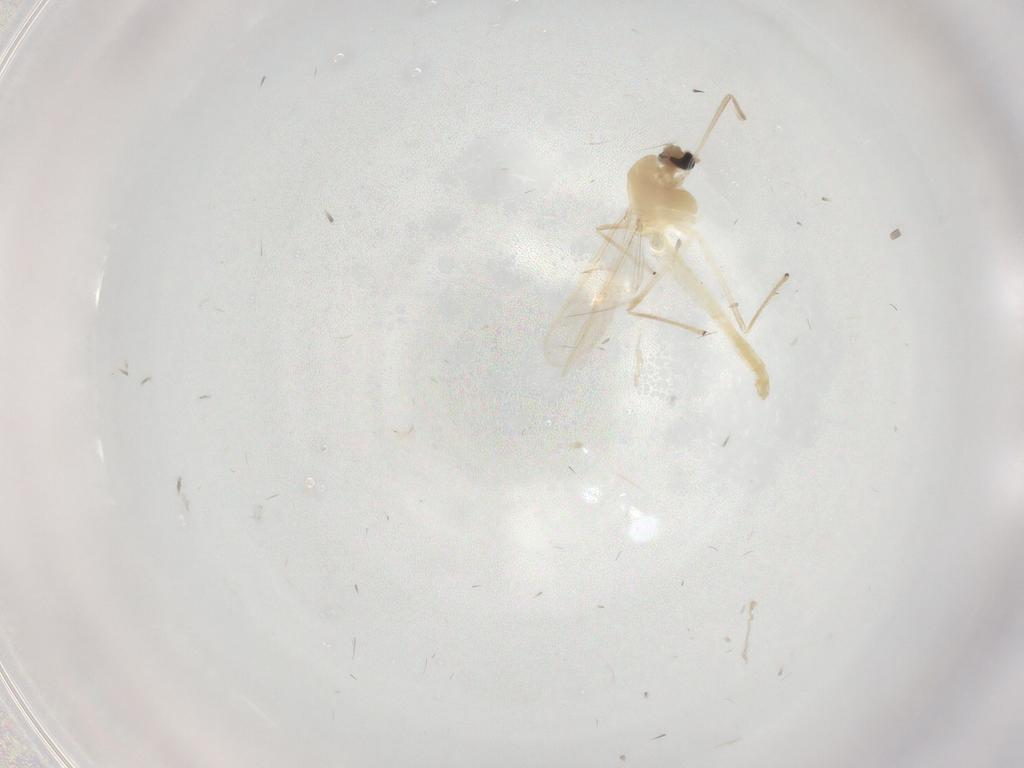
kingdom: Animalia
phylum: Arthropoda
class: Insecta
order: Diptera
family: Chironomidae
